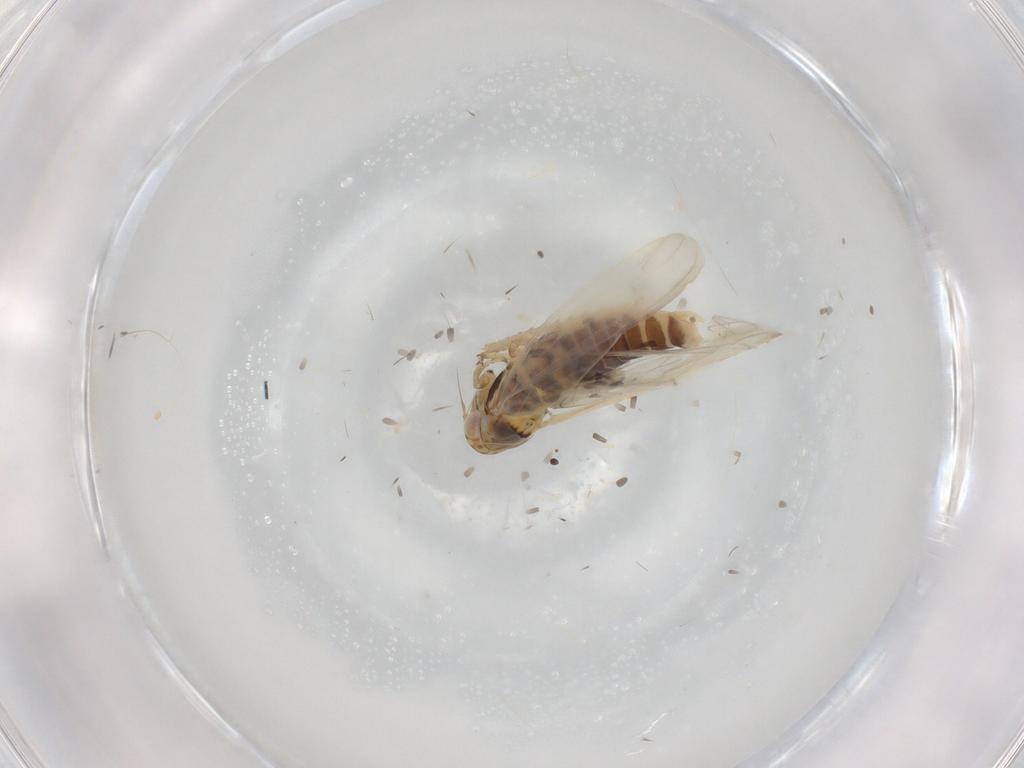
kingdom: Animalia
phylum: Arthropoda
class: Insecta
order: Hemiptera
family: Cicadellidae
